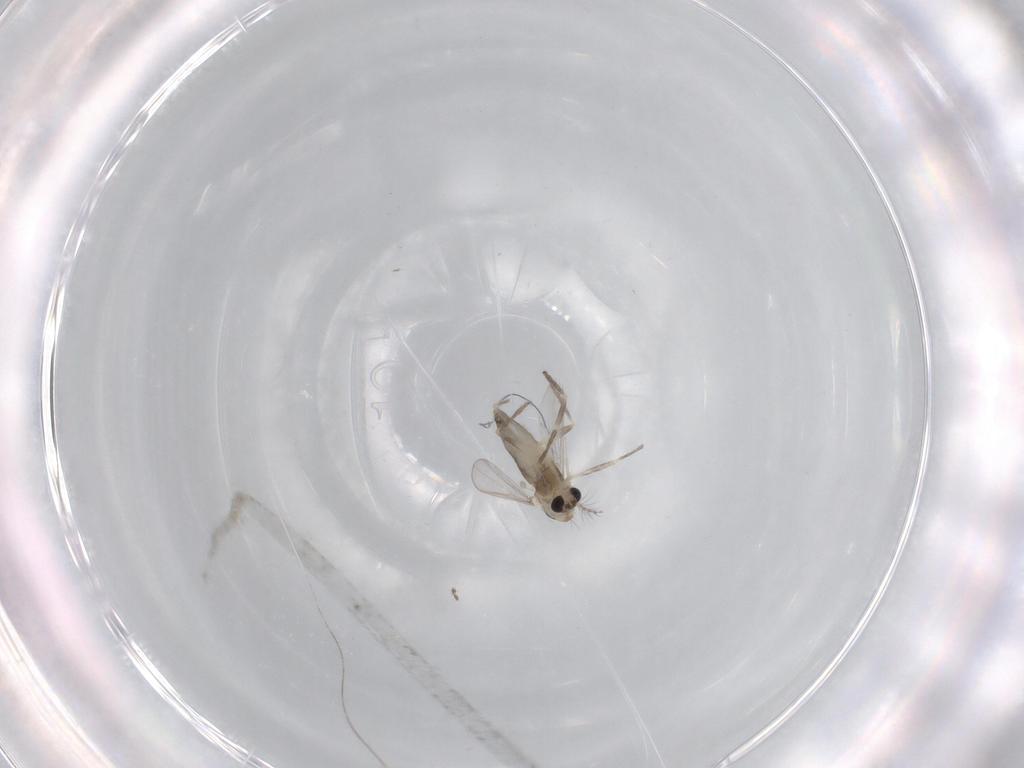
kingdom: Animalia
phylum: Arthropoda
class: Insecta
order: Diptera
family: Chironomidae
